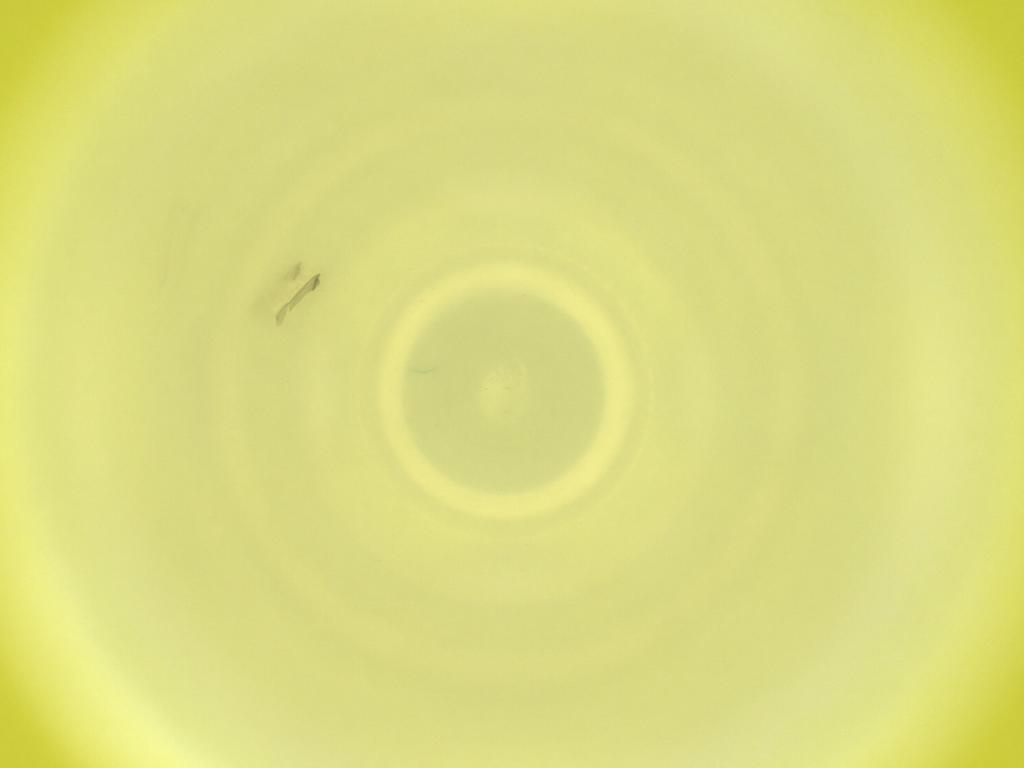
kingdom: Animalia
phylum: Arthropoda
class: Insecta
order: Diptera
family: Cecidomyiidae
